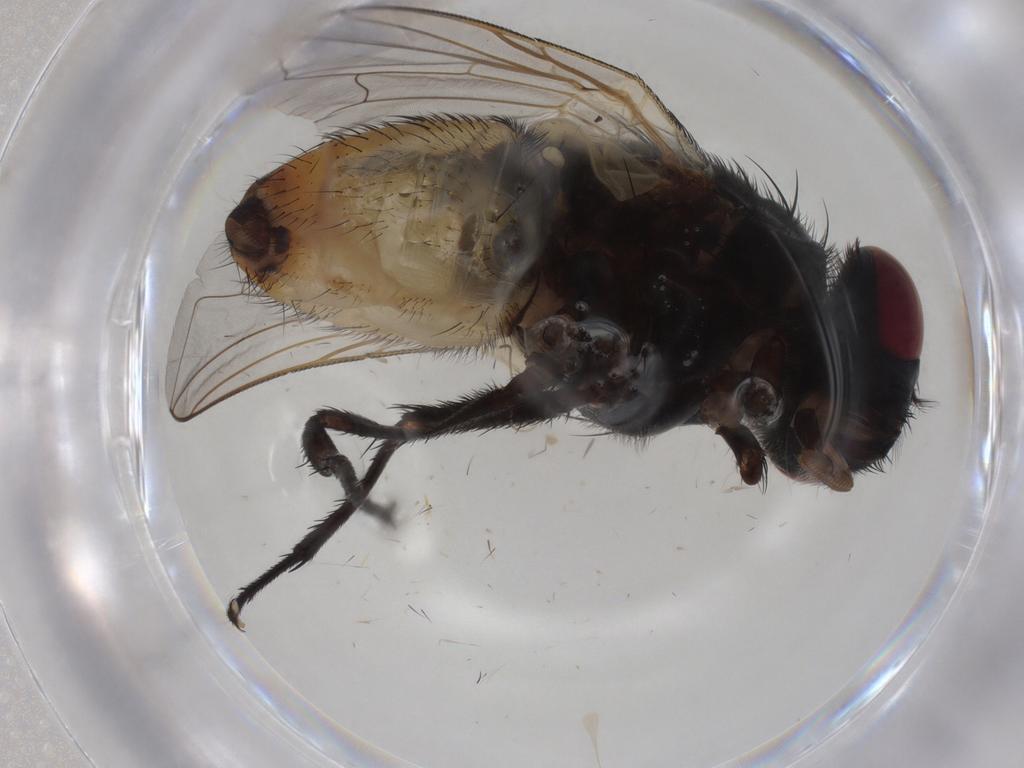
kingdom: Animalia
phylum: Arthropoda
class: Insecta
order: Diptera
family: Muscidae
